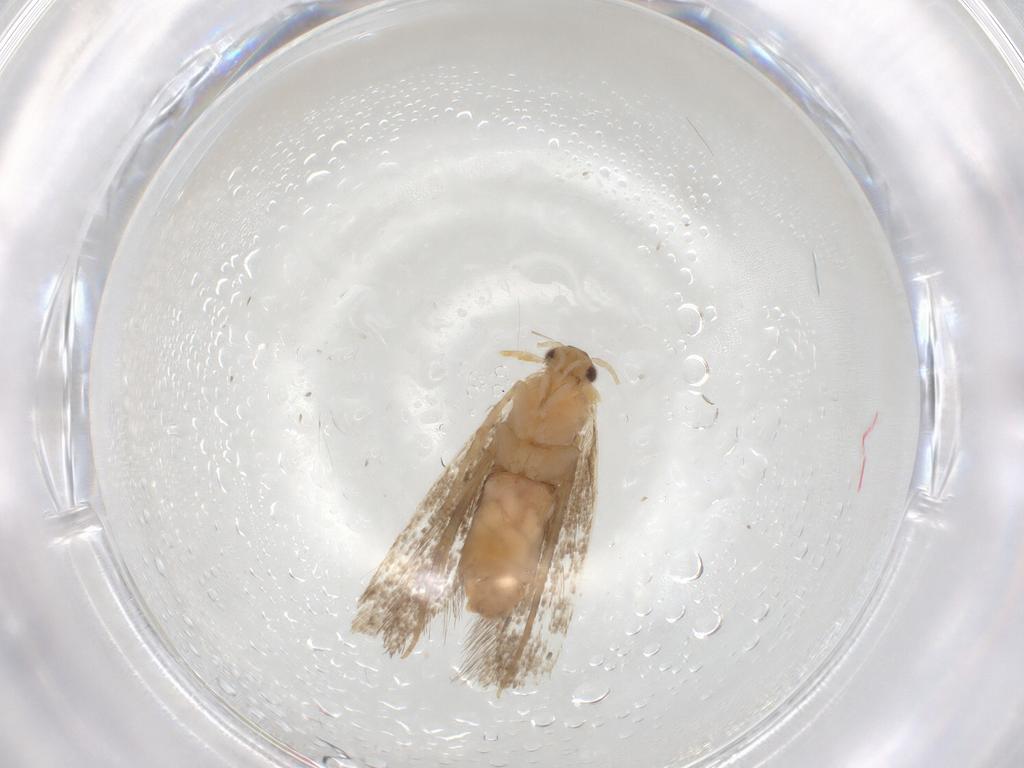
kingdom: Animalia
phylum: Arthropoda
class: Insecta
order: Lepidoptera
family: Dryadaulidae
